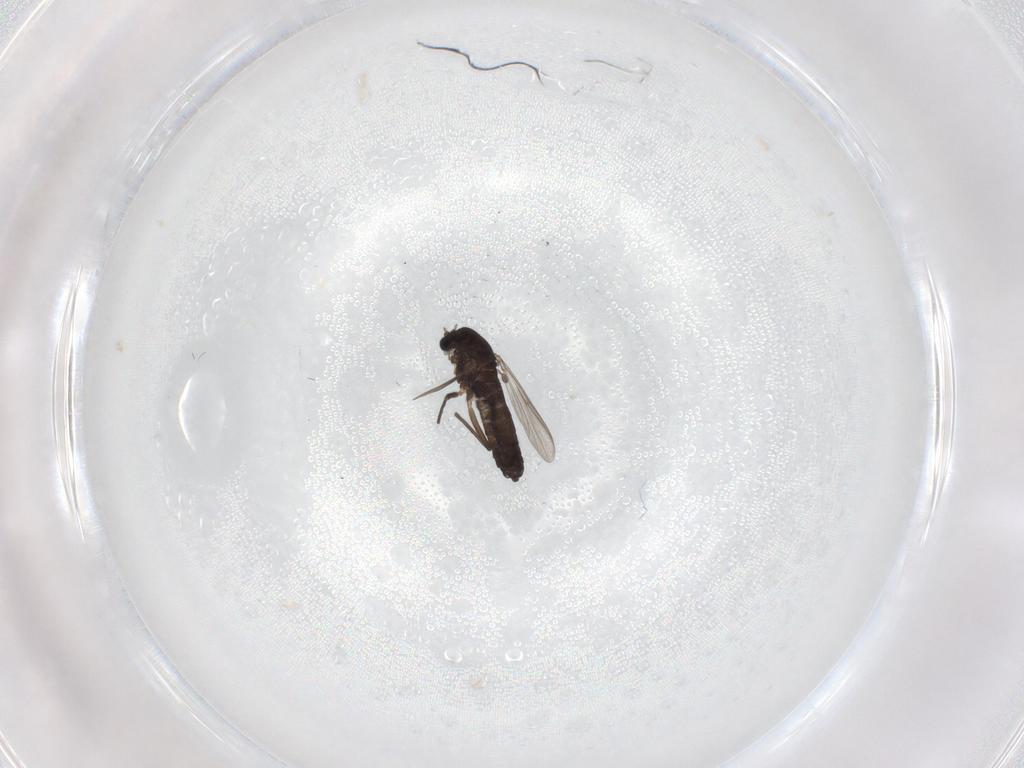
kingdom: Animalia
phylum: Arthropoda
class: Insecta
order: Diptera
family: Chironomidae
